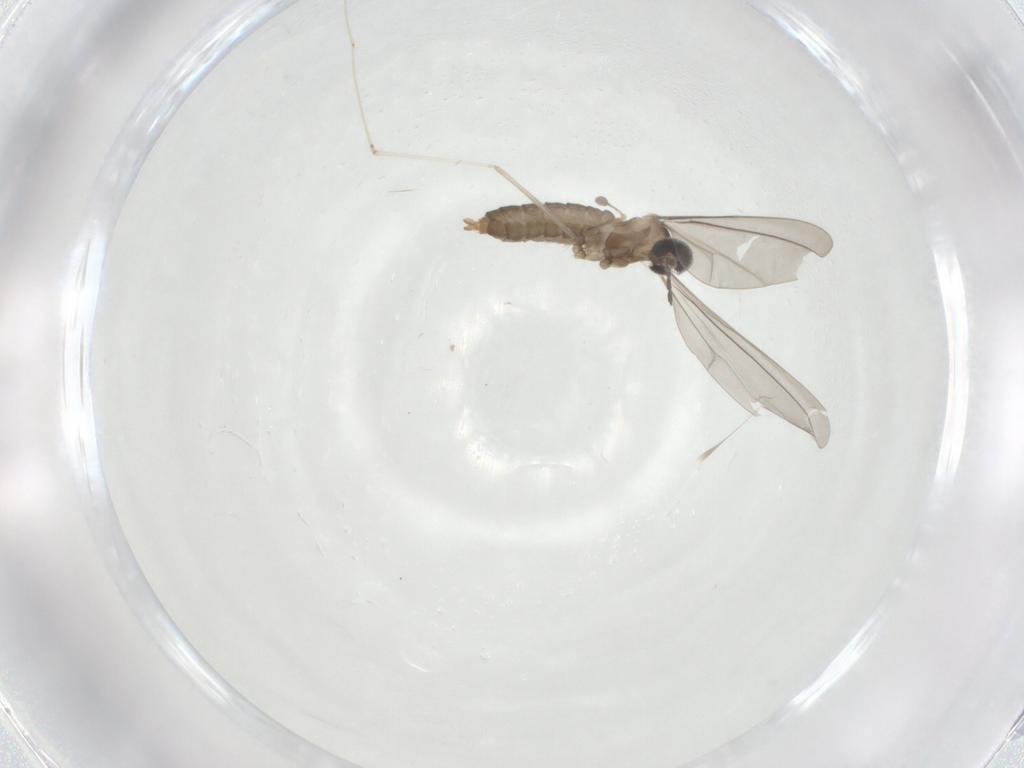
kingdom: Animalia
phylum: Arthropoda
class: Insecta
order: Diptera
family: Cecidomyiidae
